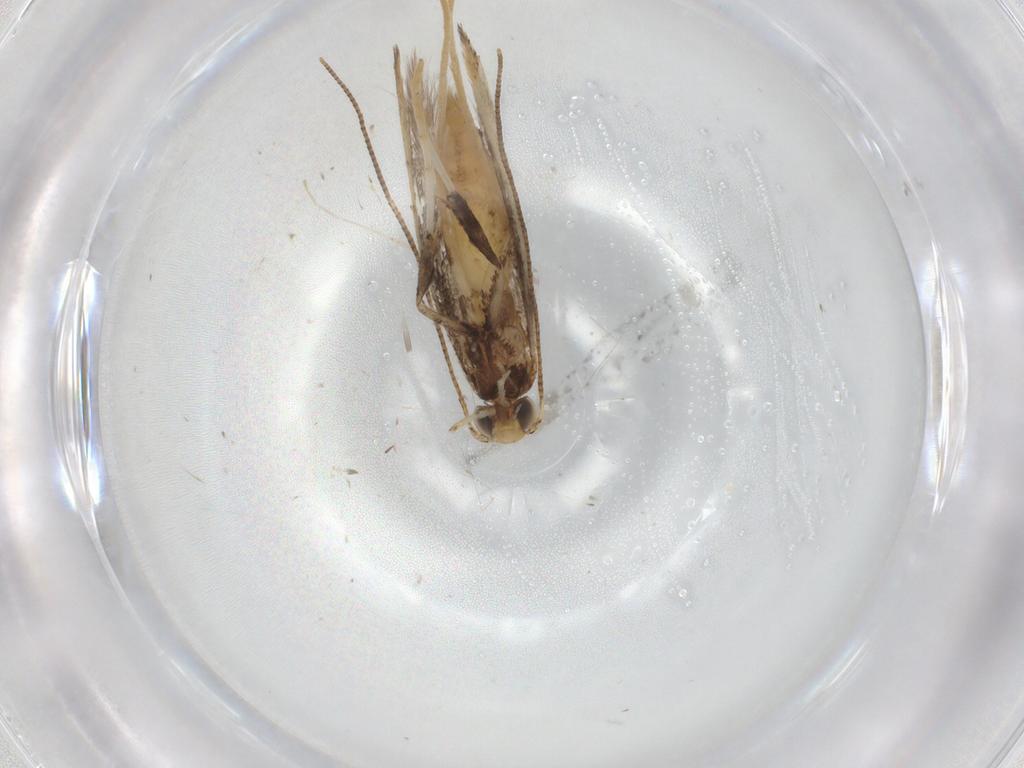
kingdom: Animalia
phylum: Arthropoda
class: Insecta
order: Lepidoptera
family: Gracillariidae
